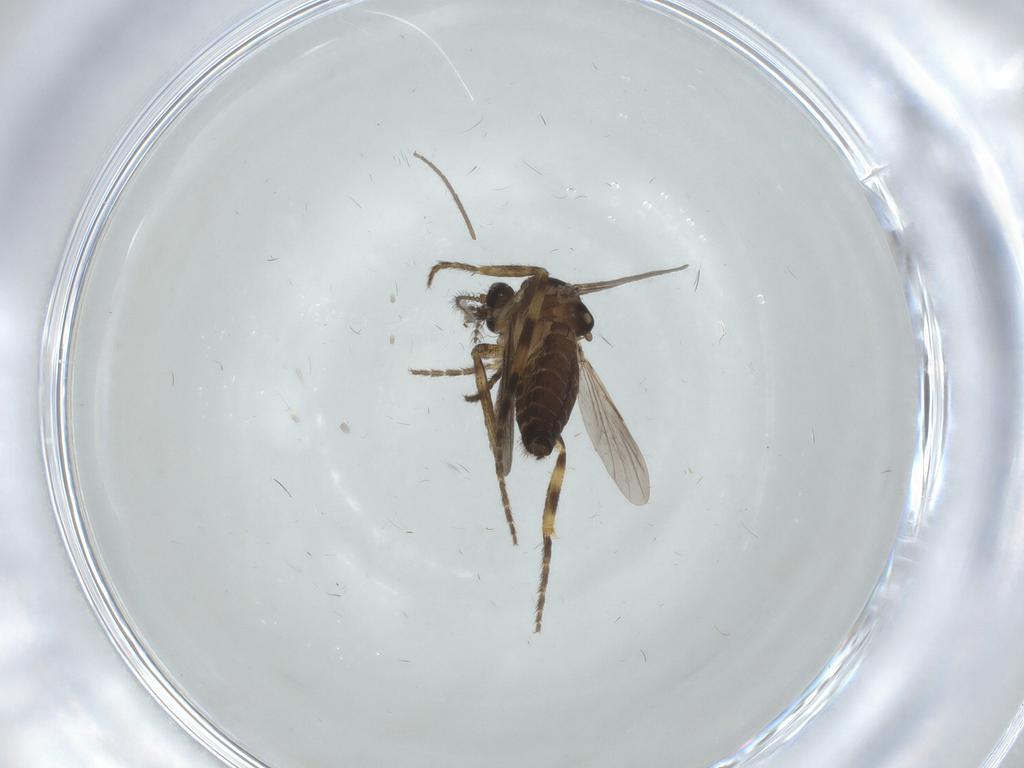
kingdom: Animalia
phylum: Arthropoda
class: Insecta
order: Diptera
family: Ceratopogonidae
